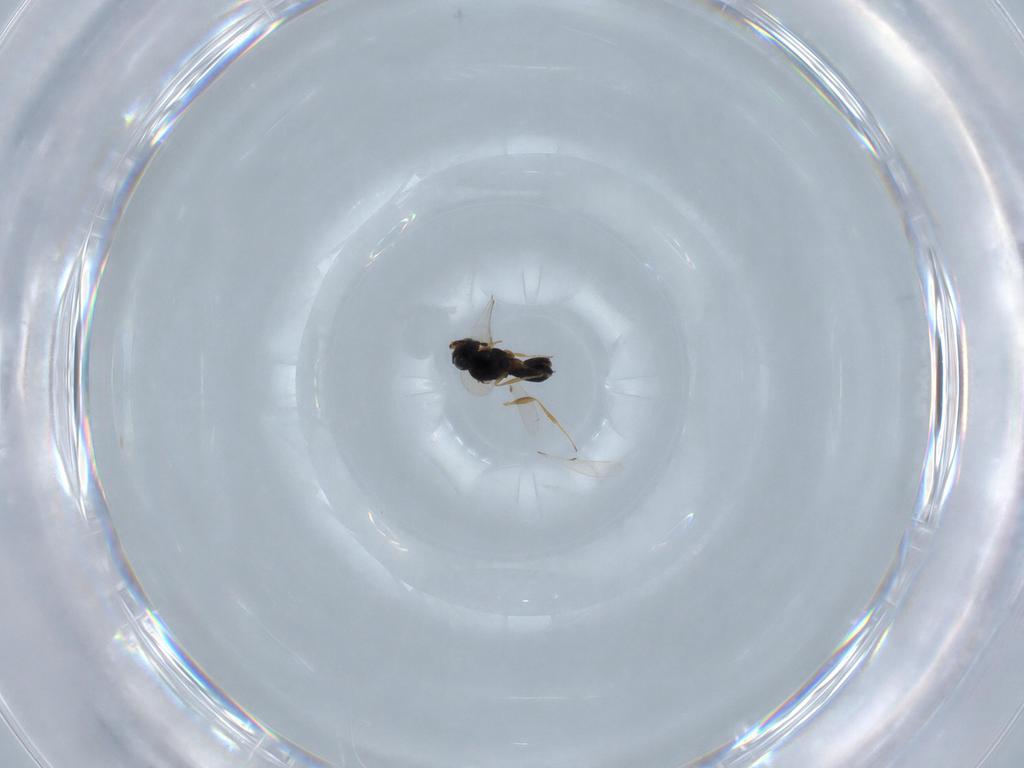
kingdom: Animalia
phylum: Arthropoda
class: Insecta
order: Hymenoptera
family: Scelionidae
